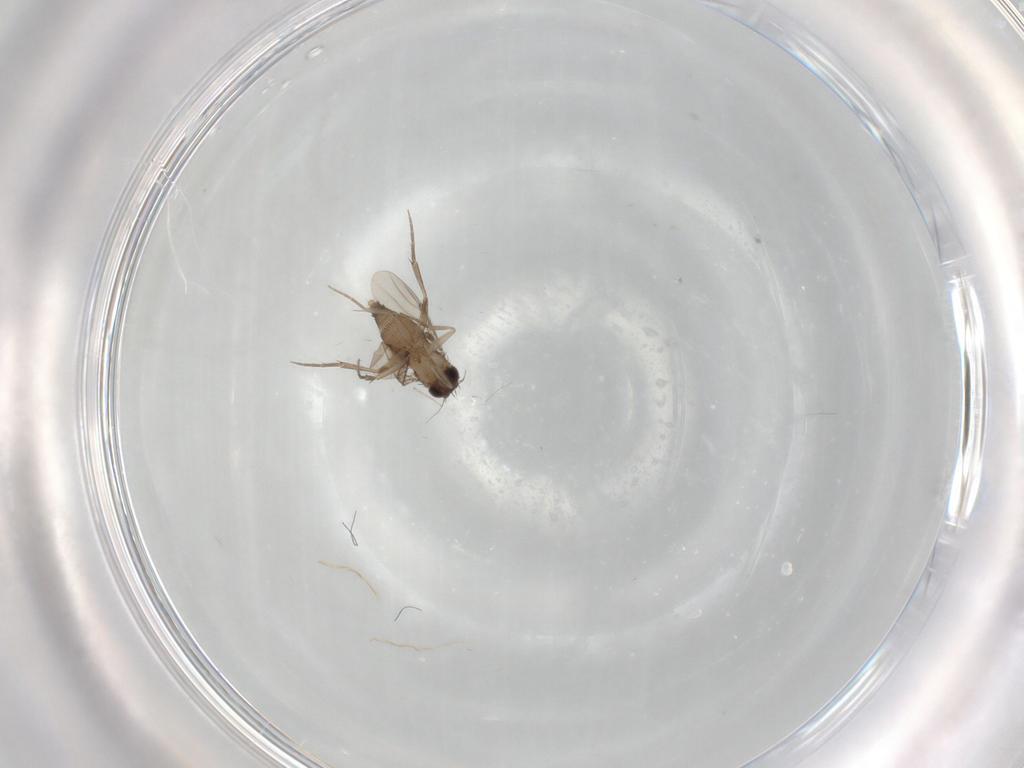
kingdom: Animalia
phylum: Arthropoda
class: Insecta
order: Diptera
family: Phoridae
